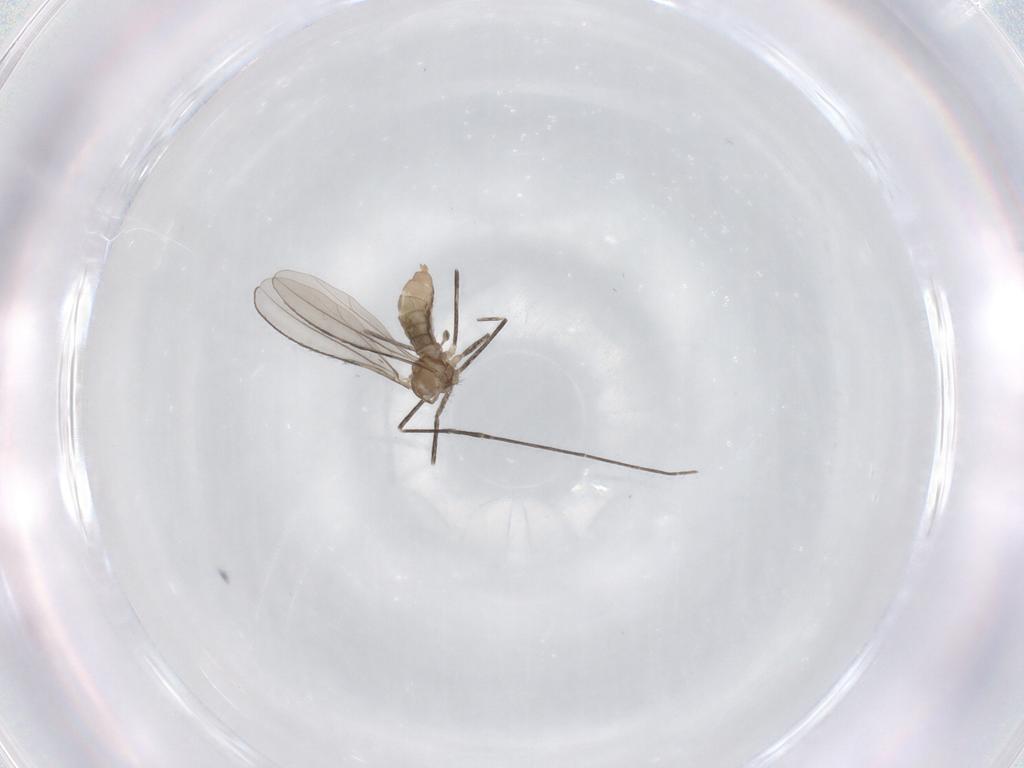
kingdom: Animalia
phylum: Arthropoda
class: Insecta
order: Diptera
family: Cecidomyiidae
